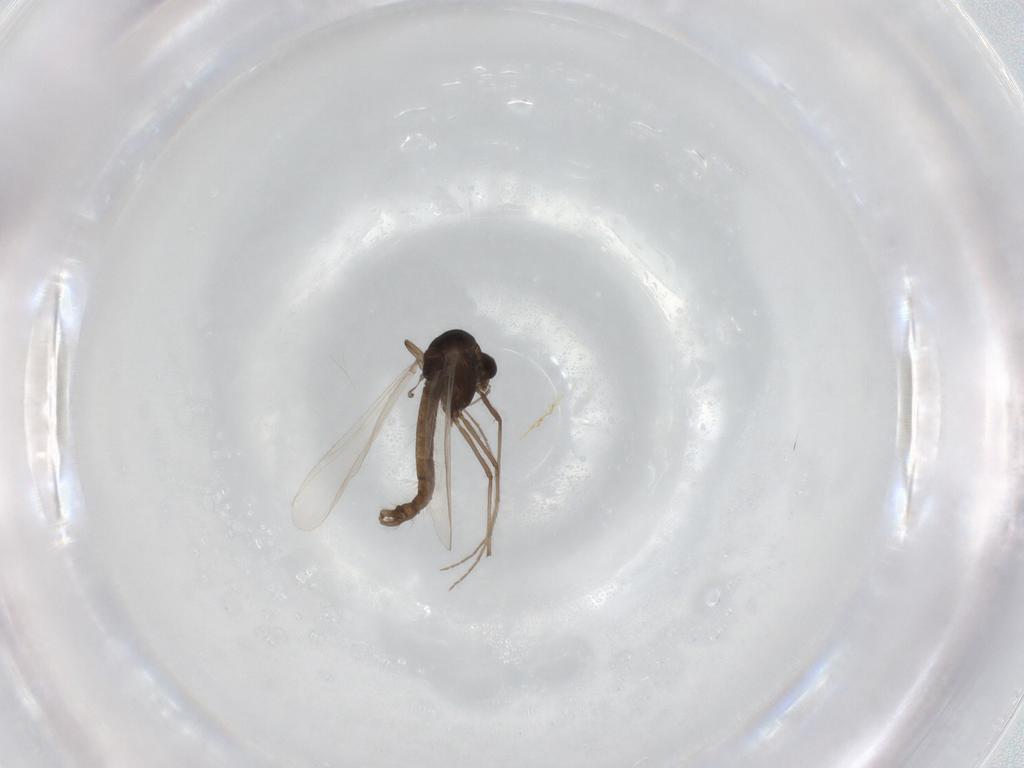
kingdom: Animalia
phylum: Arthropoda
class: Insecta
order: Diptera
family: Chironomidae
